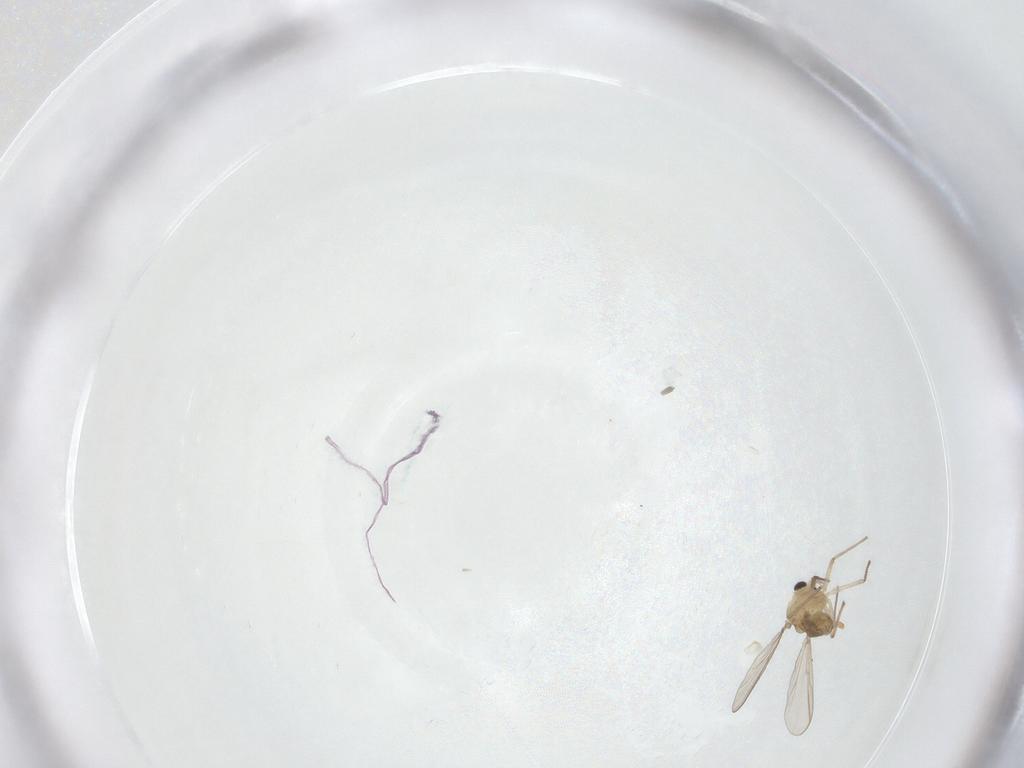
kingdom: Animalia
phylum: Arthropoda
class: Insecta
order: Diptera
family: Chironomidae
